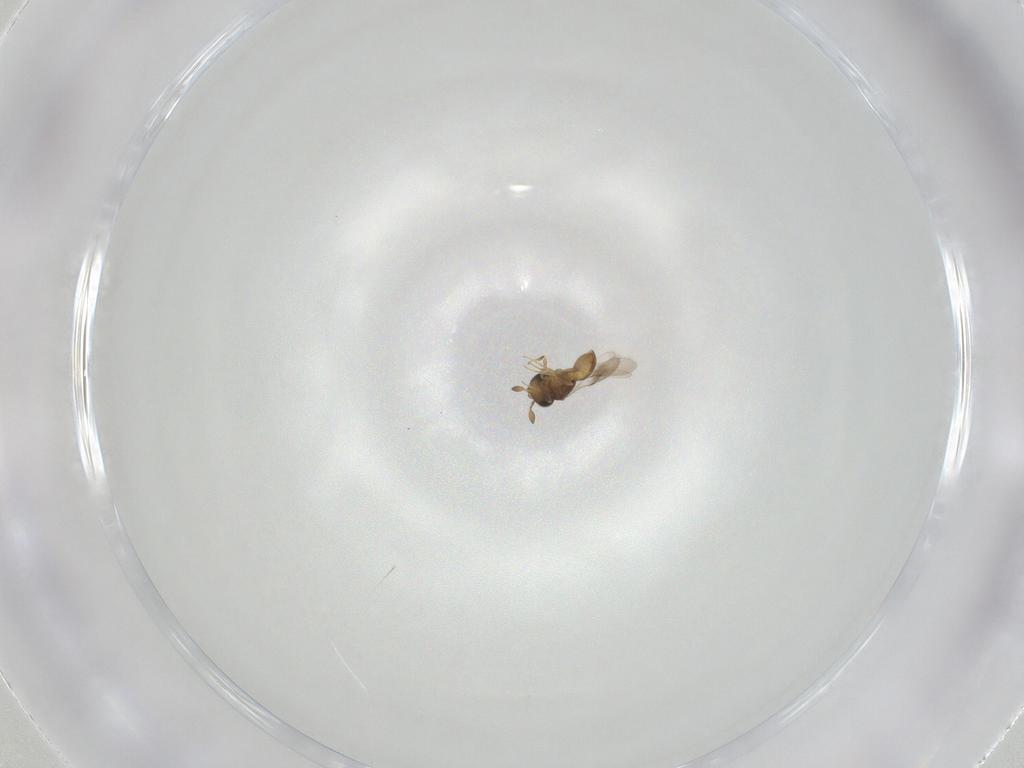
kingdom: Animalia
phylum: Arthropoda
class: Insecta
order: Hymenoptera
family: Scelionidae
